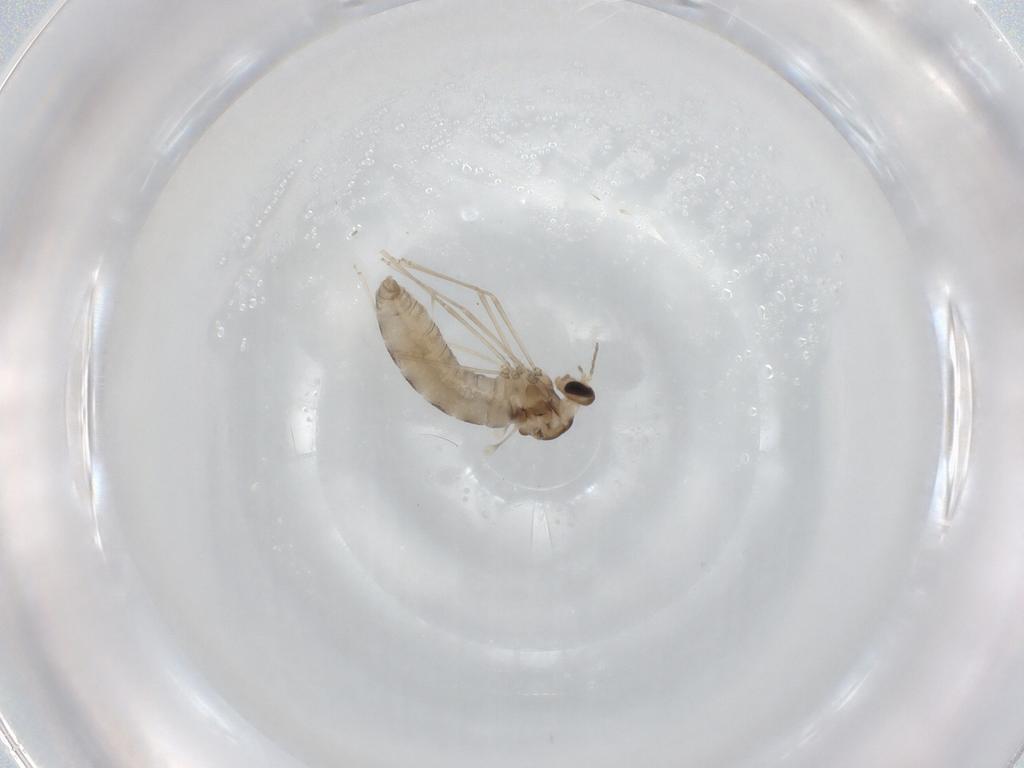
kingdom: Animalia
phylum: Arthropoda
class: Insecta
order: Diptera
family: Cecidomyiidae
